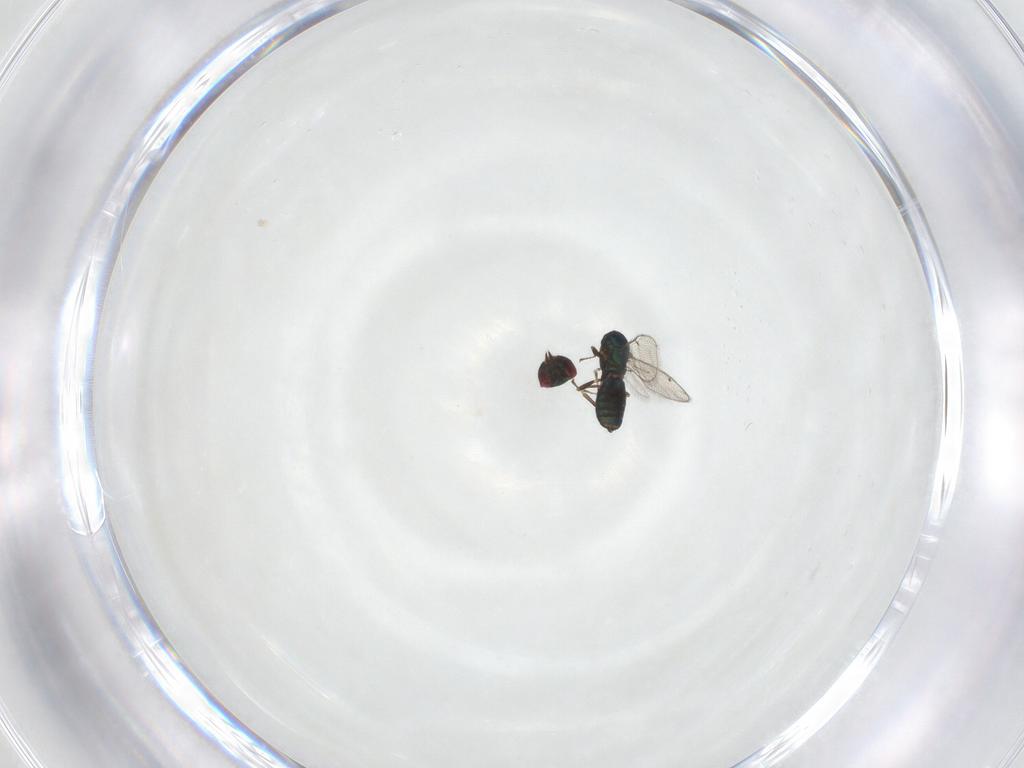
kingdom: Animalia
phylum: Arthropoda
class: Insecta
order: Hymenoptera
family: Eulophidae
